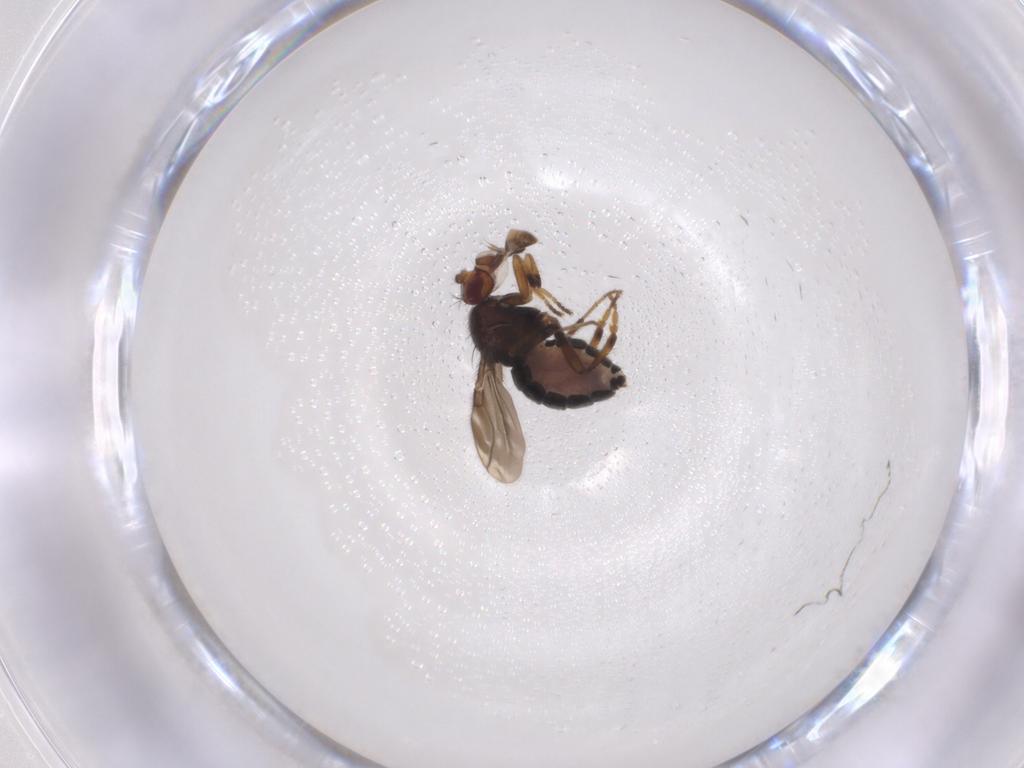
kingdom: Animalia
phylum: Arthropoda
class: Insecta
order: Diptera
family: Sphaeroceridae
